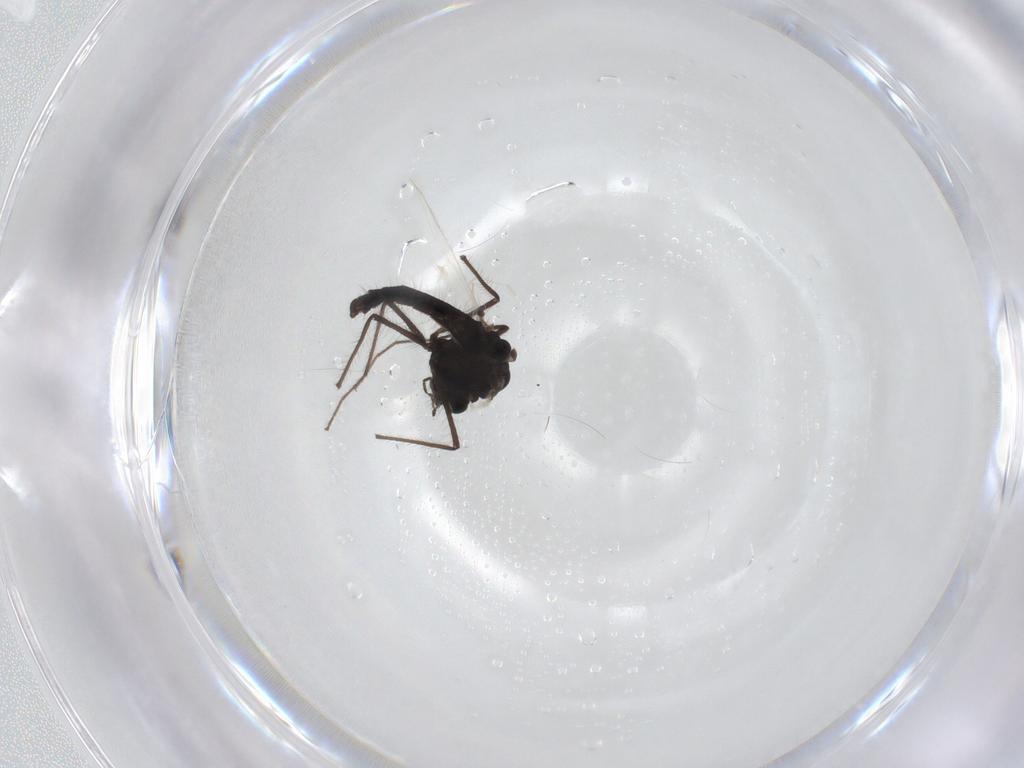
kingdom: Animalia
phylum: Arthropoda
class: Insecta
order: Diptera
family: Chironomidae
